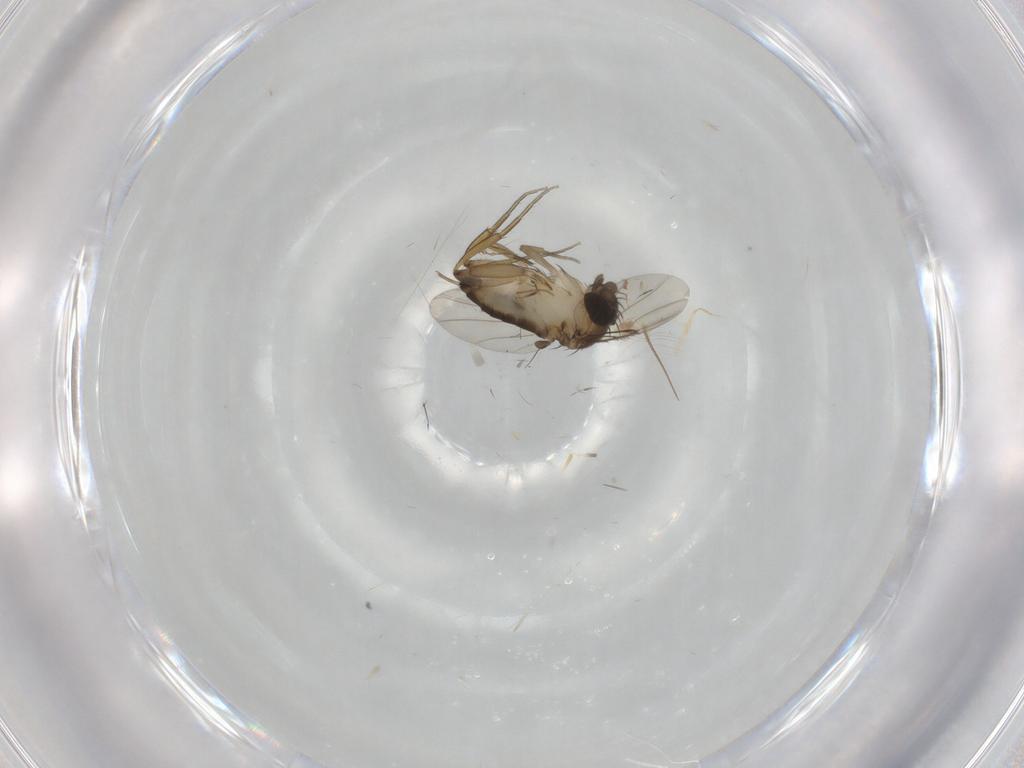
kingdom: Animalia
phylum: Arthropoda
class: Insecta
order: Diptera
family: Phoridae
